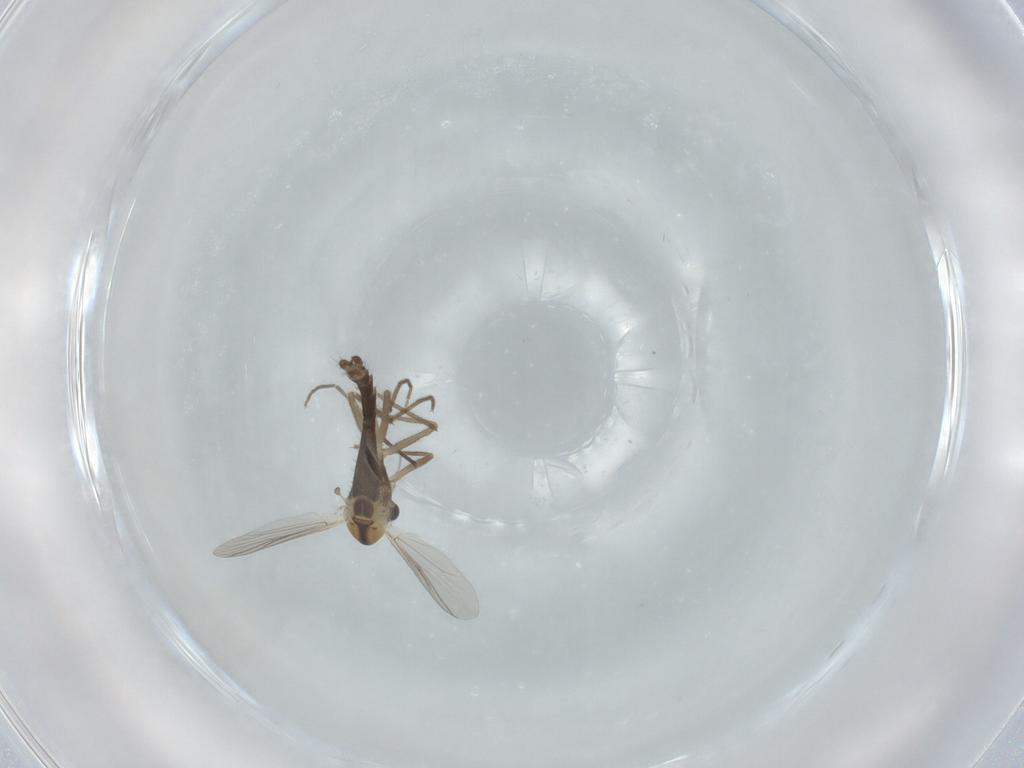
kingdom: Animalia
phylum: Arthropoda
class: Insecta
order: Diptera
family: Chironomidae
